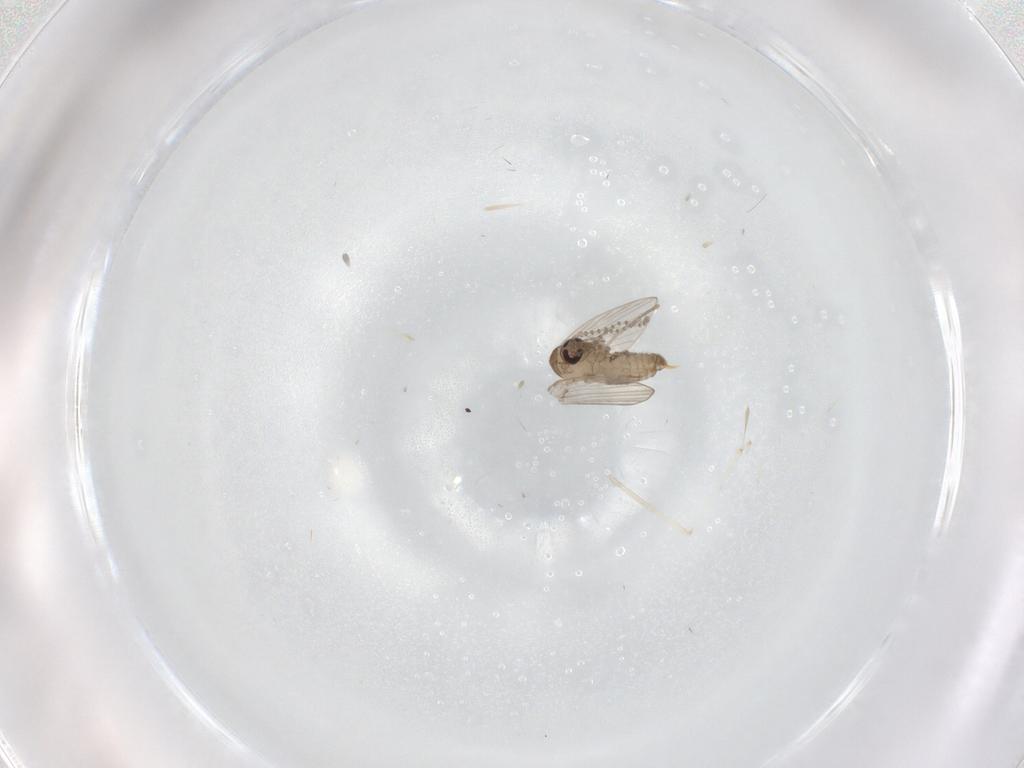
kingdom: Animalia
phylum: Arthropoda
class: Insecta
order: Diptera
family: Psychodidae
